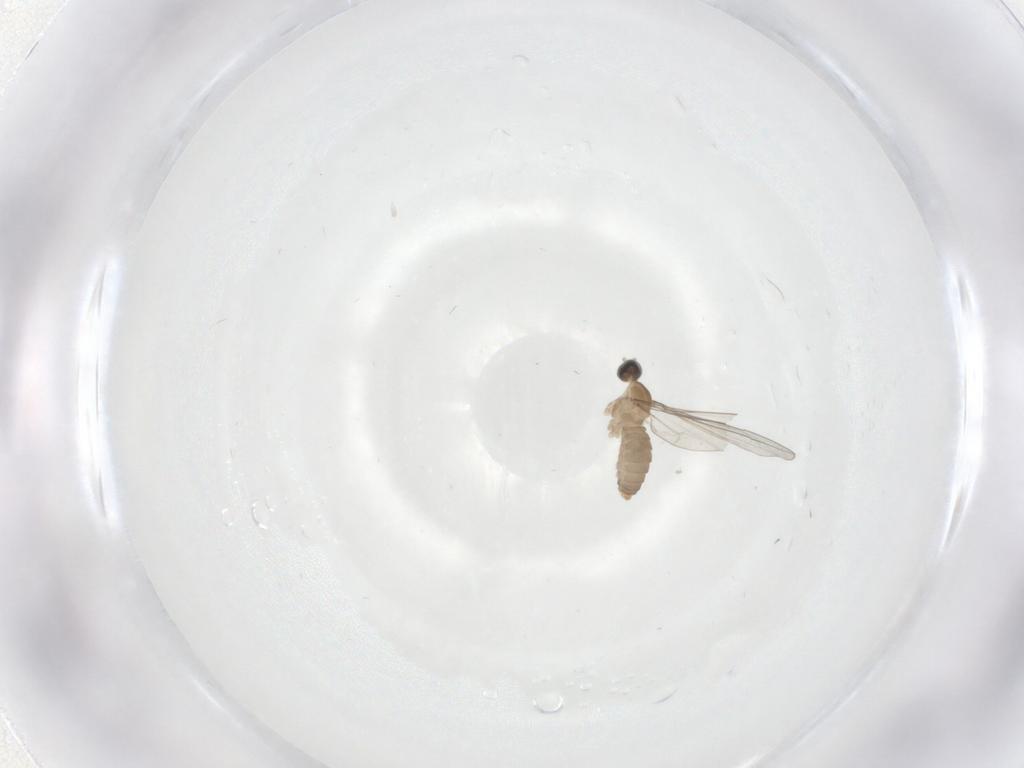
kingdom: Animalia
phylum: Arthropoda
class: Insecta
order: Diptera
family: Cecidomyiidae
